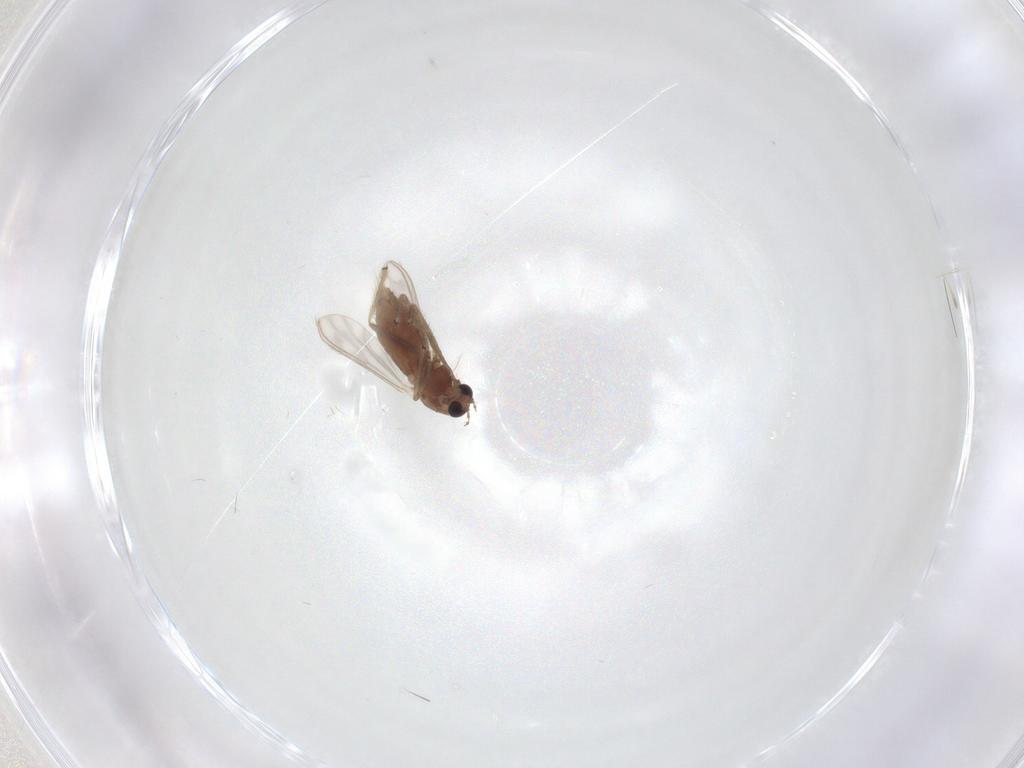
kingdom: Animalia
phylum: Arthropoda
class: Insecta
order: Diptera
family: Chironomidae
